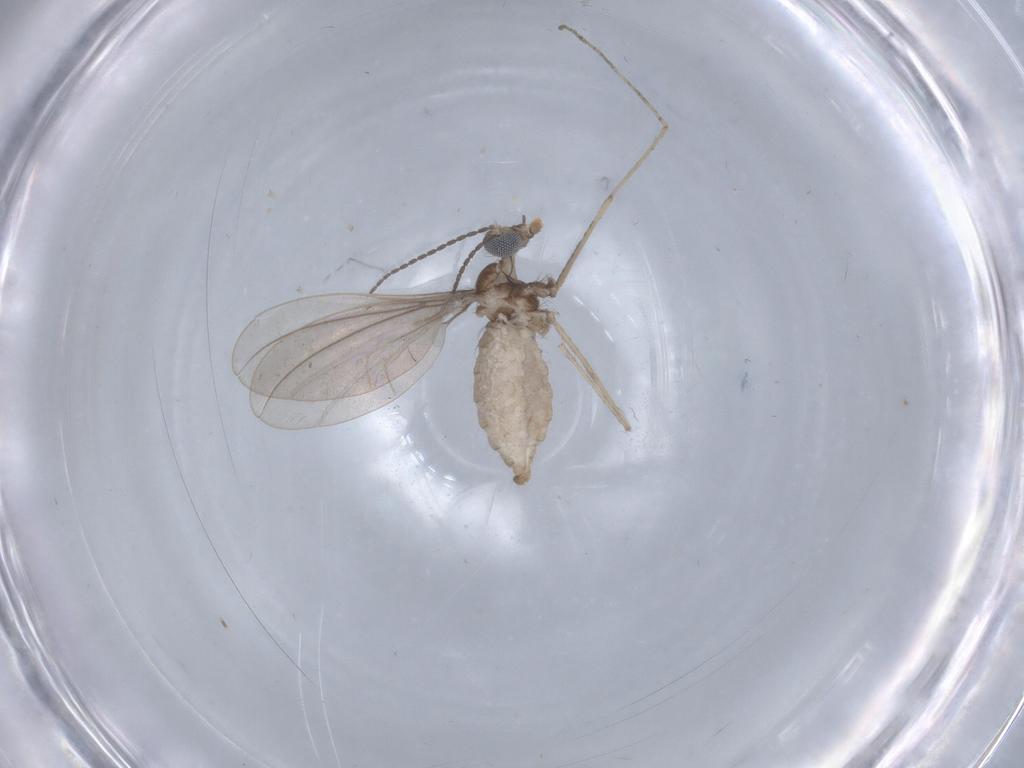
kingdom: Animalia
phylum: Arthropoda
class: Insecta
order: Diptera
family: Cecidomyiidae
